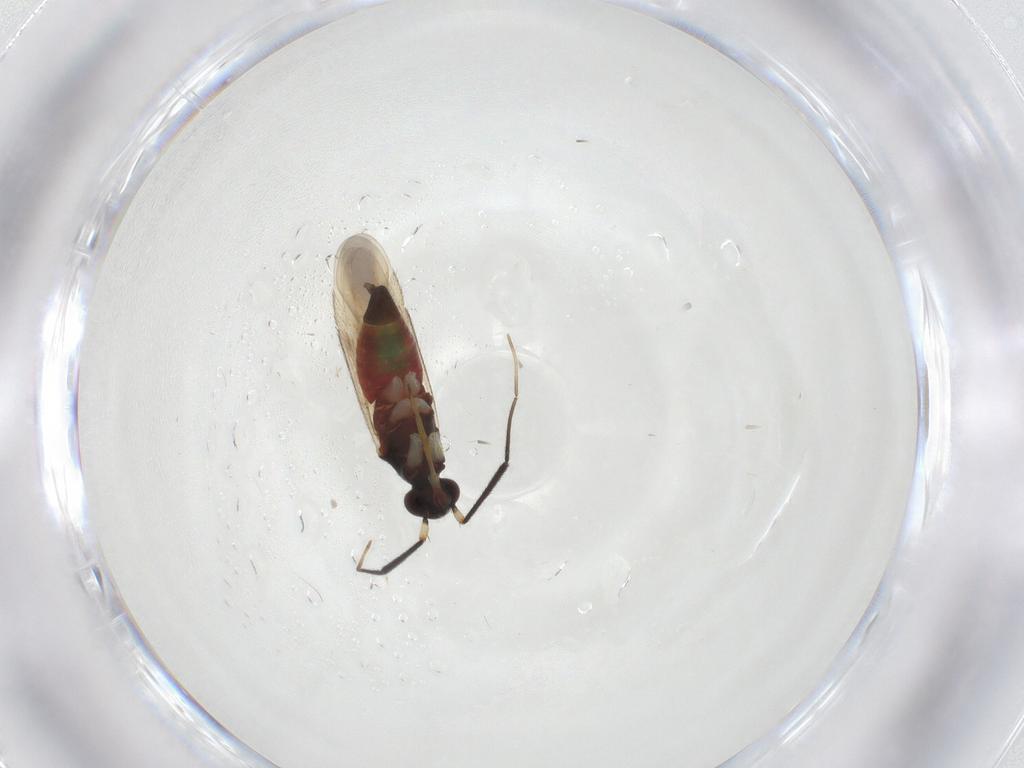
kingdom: Animalia
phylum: Arthropoda
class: Insecta
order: Hemiptera
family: Miridae
